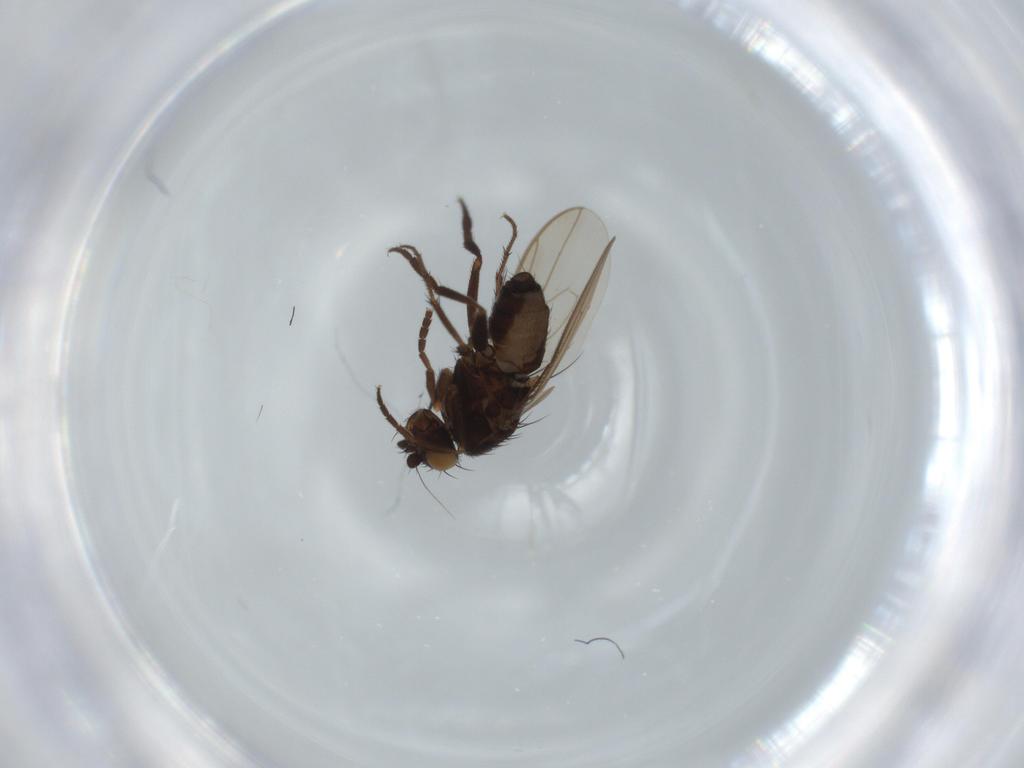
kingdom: Animalia
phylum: Arthropoda
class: Insecta
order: Diptera
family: Sphaeroceridae
